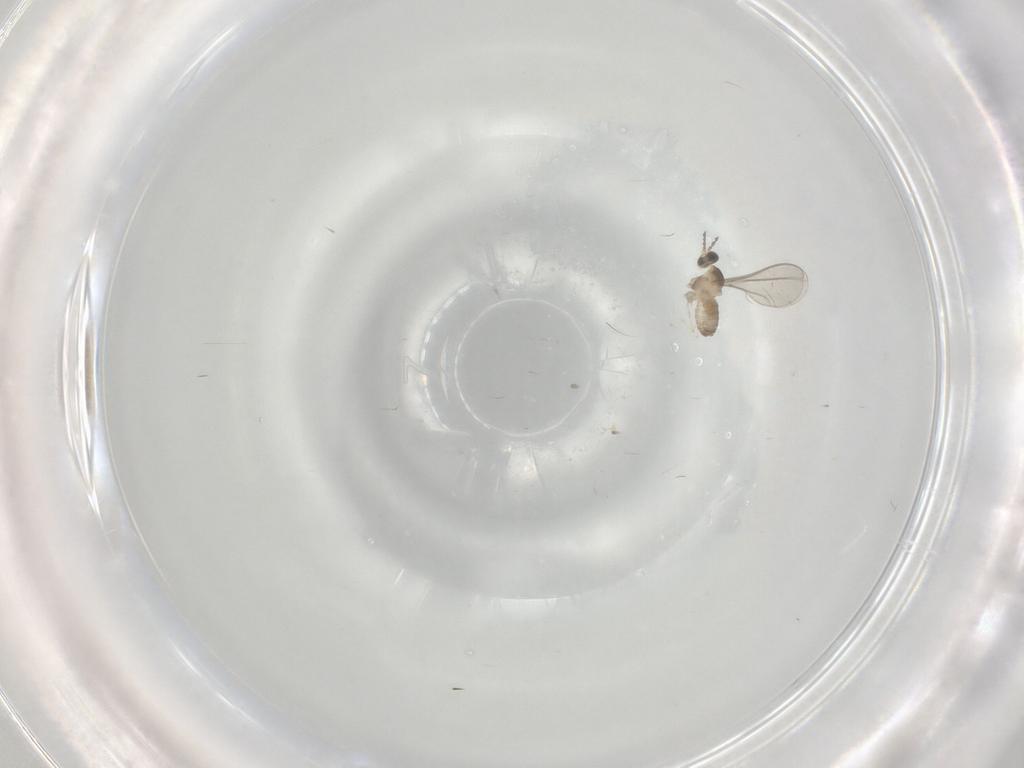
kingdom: Animalia
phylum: Arthropoda
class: Insecta
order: Diptera
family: Cecidomyiidae
